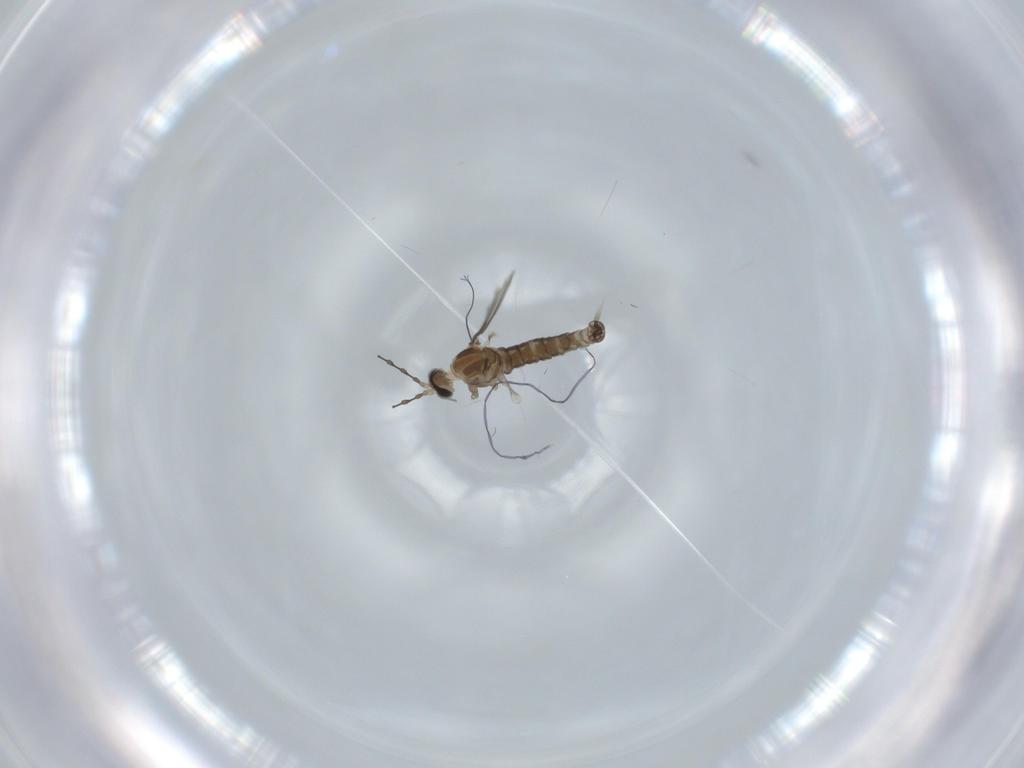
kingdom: Animalia
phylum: Arthropoda
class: Insecta
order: Diptera
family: Cecidomyiidae
